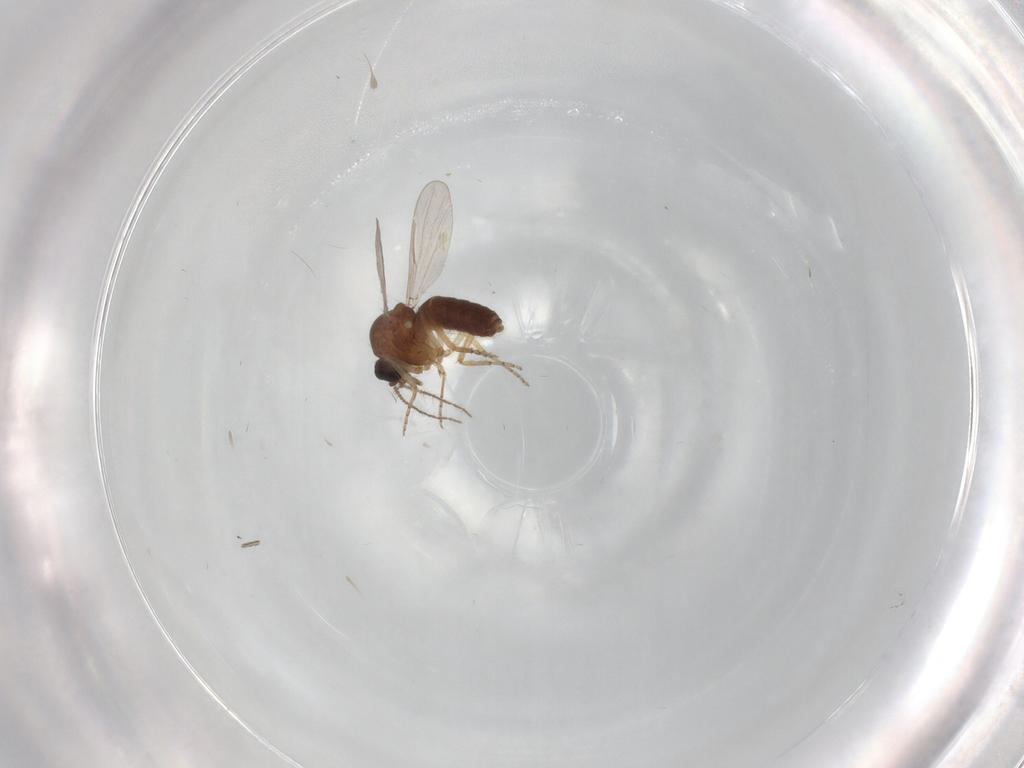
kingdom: Animalia
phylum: Arthropoda
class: Insecta
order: Diptera
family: Ceratopogonidae
